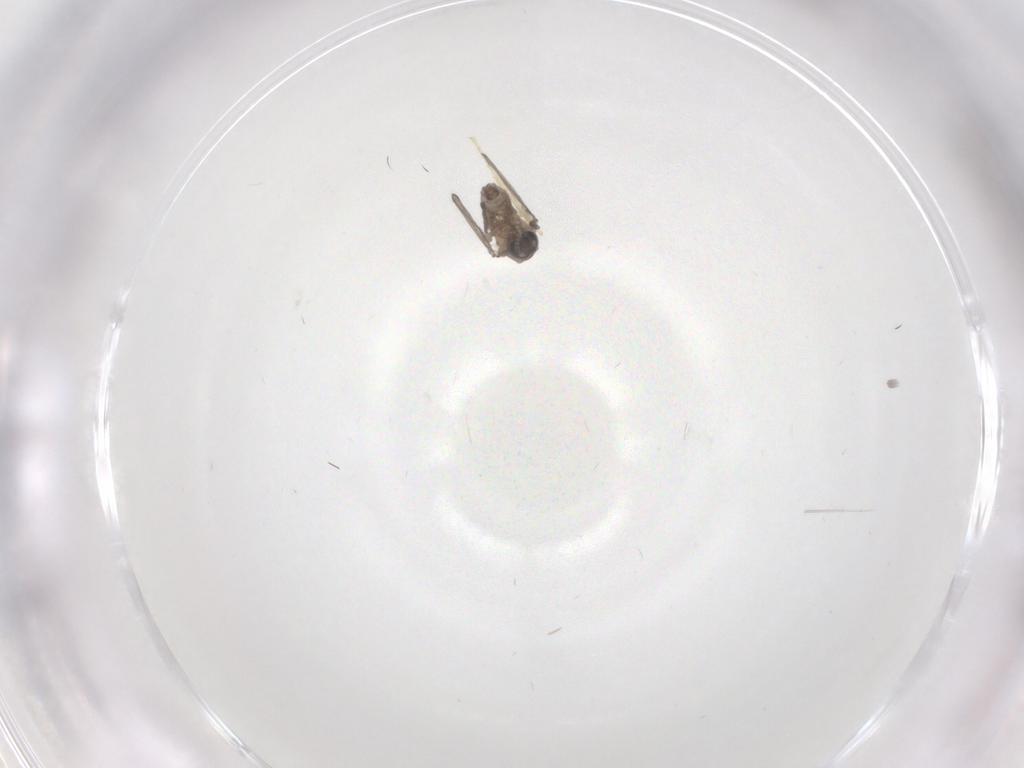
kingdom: Animalia
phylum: Arthropoda
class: Insecta
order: Diptera
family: Psychodidae
